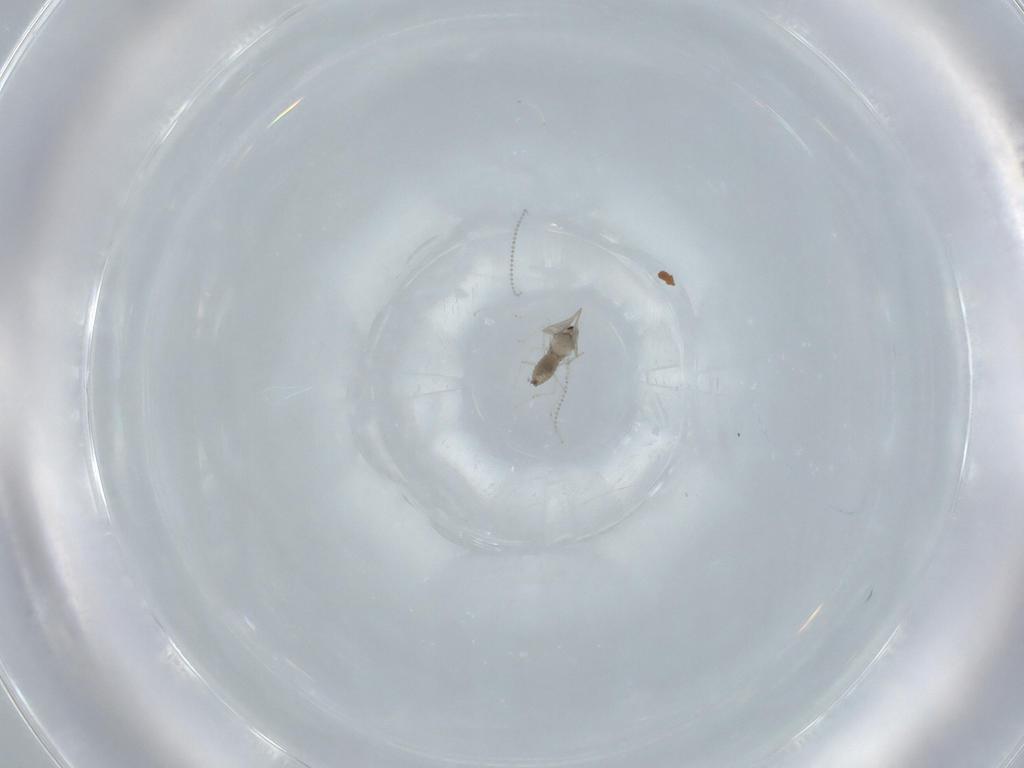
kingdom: Animalia
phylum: Arthropoda
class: Insecta
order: Diptera
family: Cecidomyiidae
